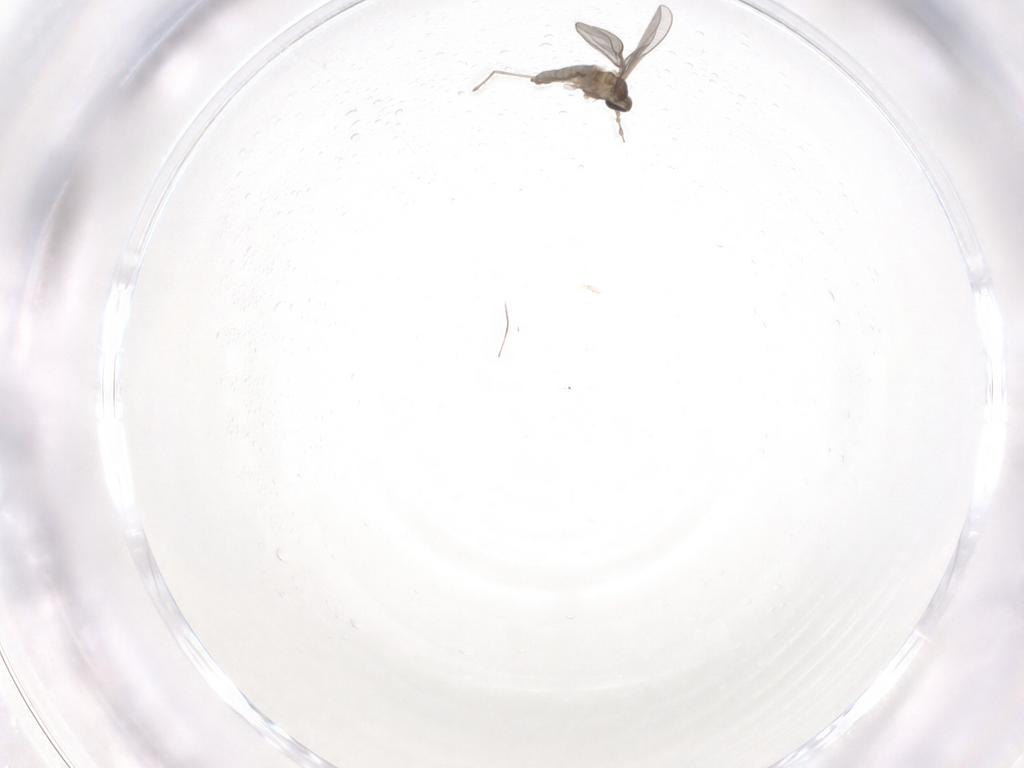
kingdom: Animalia
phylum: Arthropoda
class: Insecta
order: Diptera
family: Cecidomyiidae
